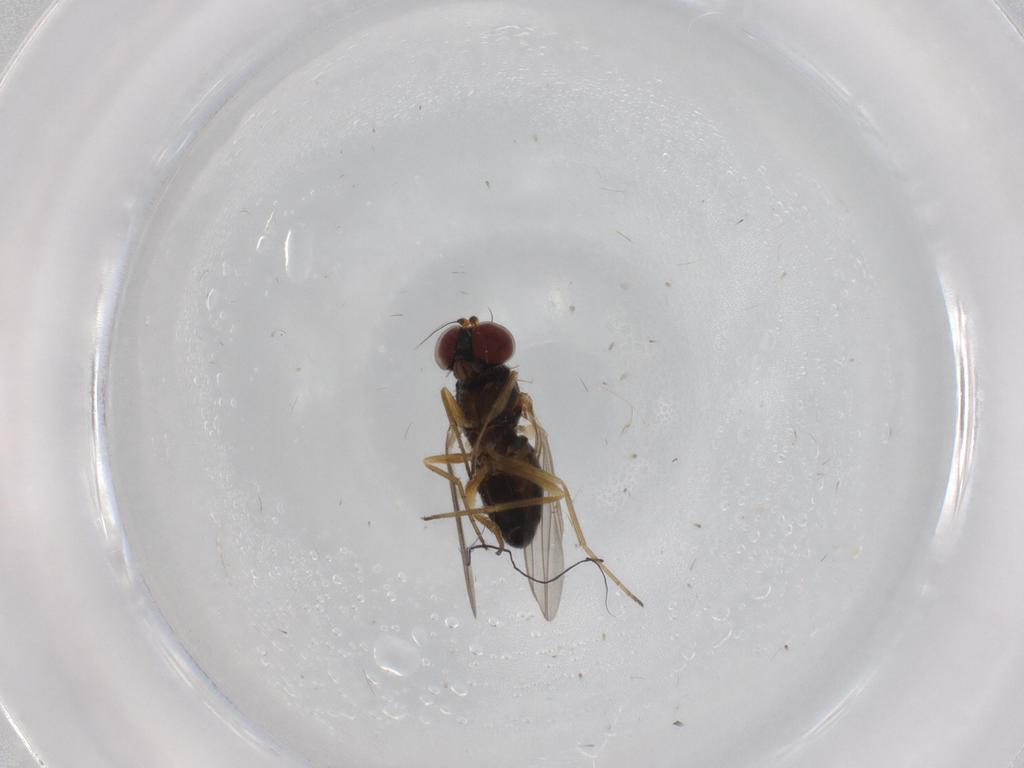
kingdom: Animalia
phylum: Arthropoda
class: Insecta
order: Diptera
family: Dolichopodidae
